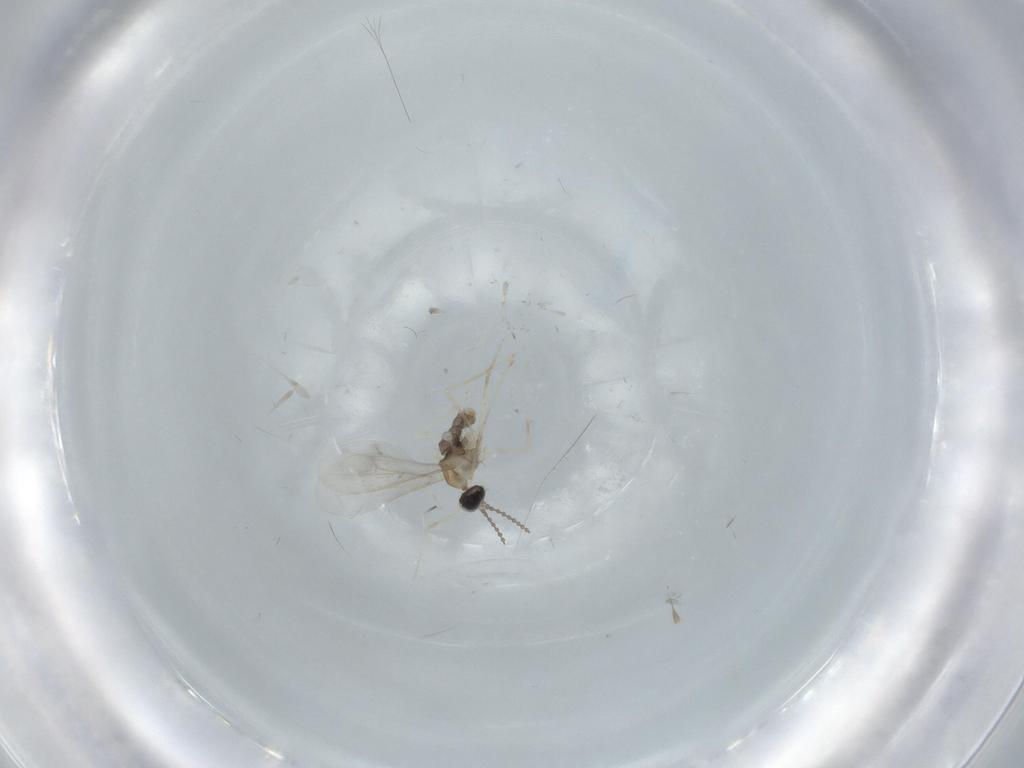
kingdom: Animalia
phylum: Arthropoda
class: Insecta
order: Diptera
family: Cecidomyiidae
